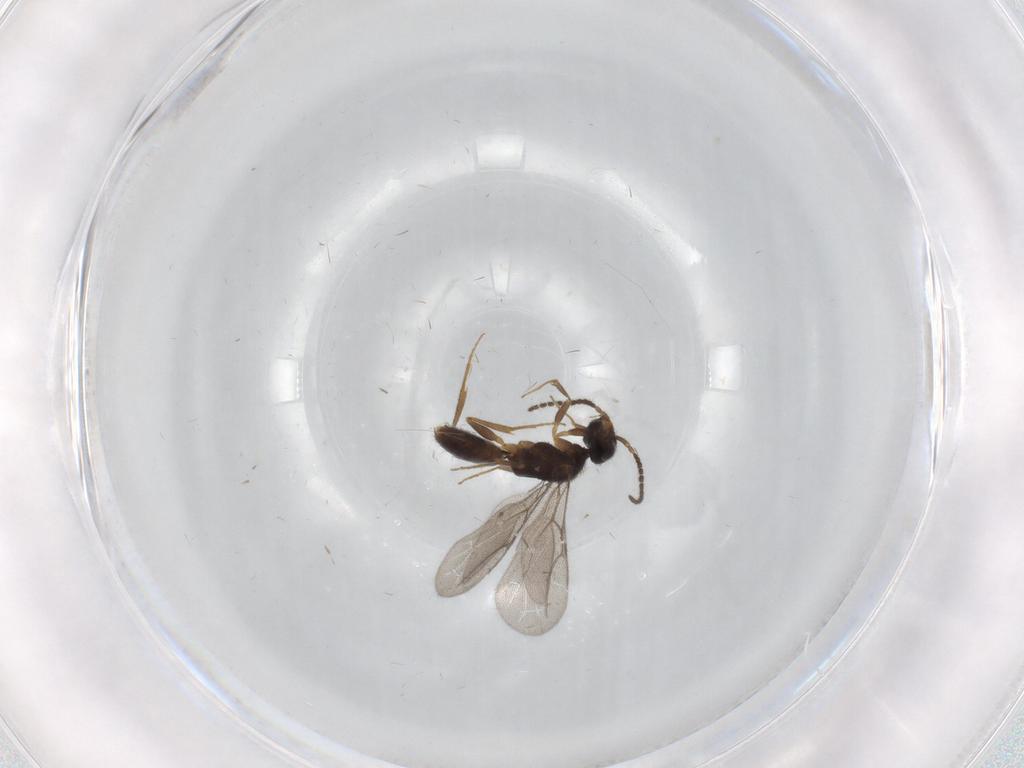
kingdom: Animalia
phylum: Arthropoda
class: Insecta
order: Hymenoptera
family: Bethylidae
